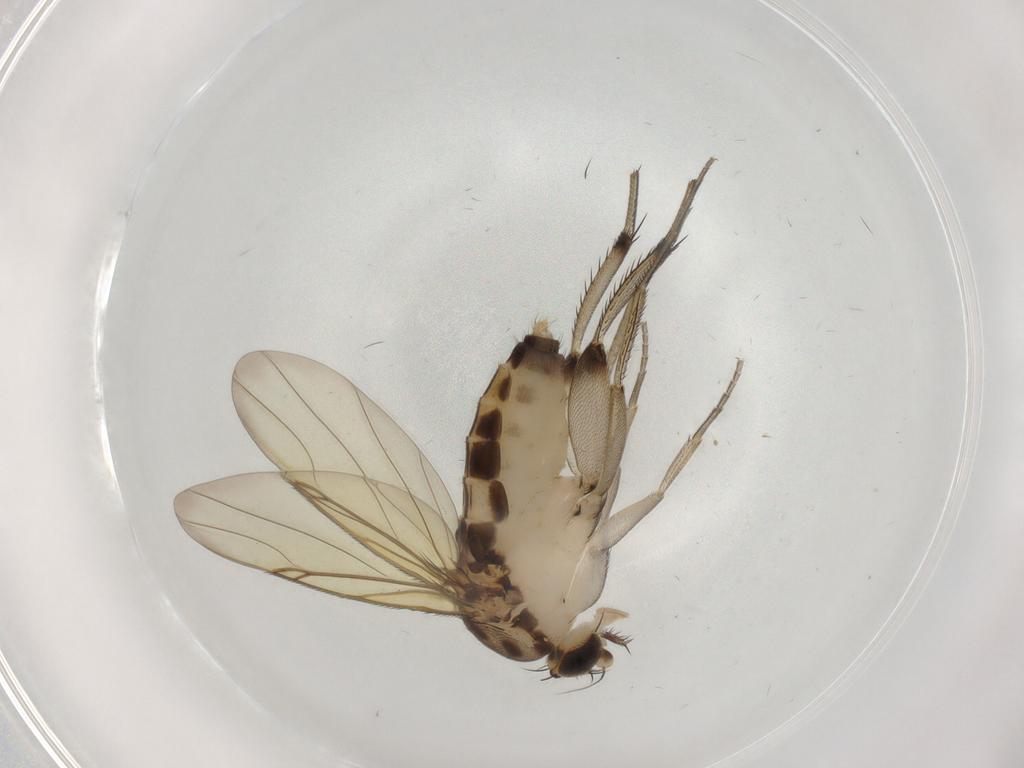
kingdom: Animalia
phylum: Arthropoda
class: Insecta
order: Diptera
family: Phoridae
